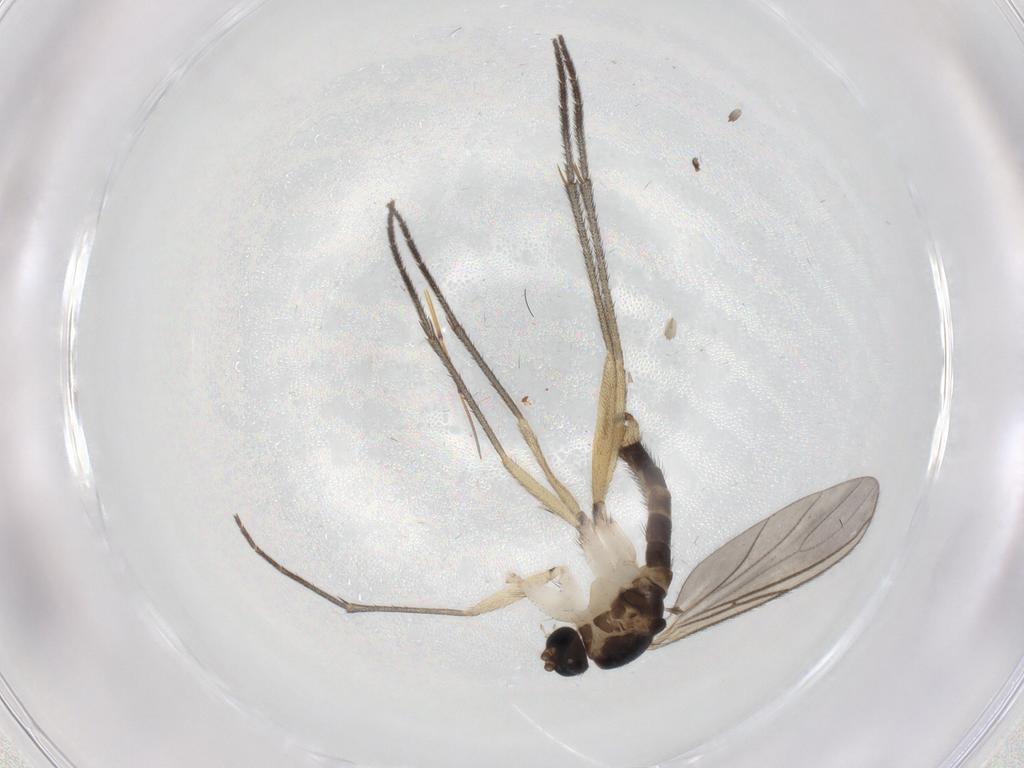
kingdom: Animalia
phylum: Arthropoda
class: Insecta
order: Diptera
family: Sciaridae
